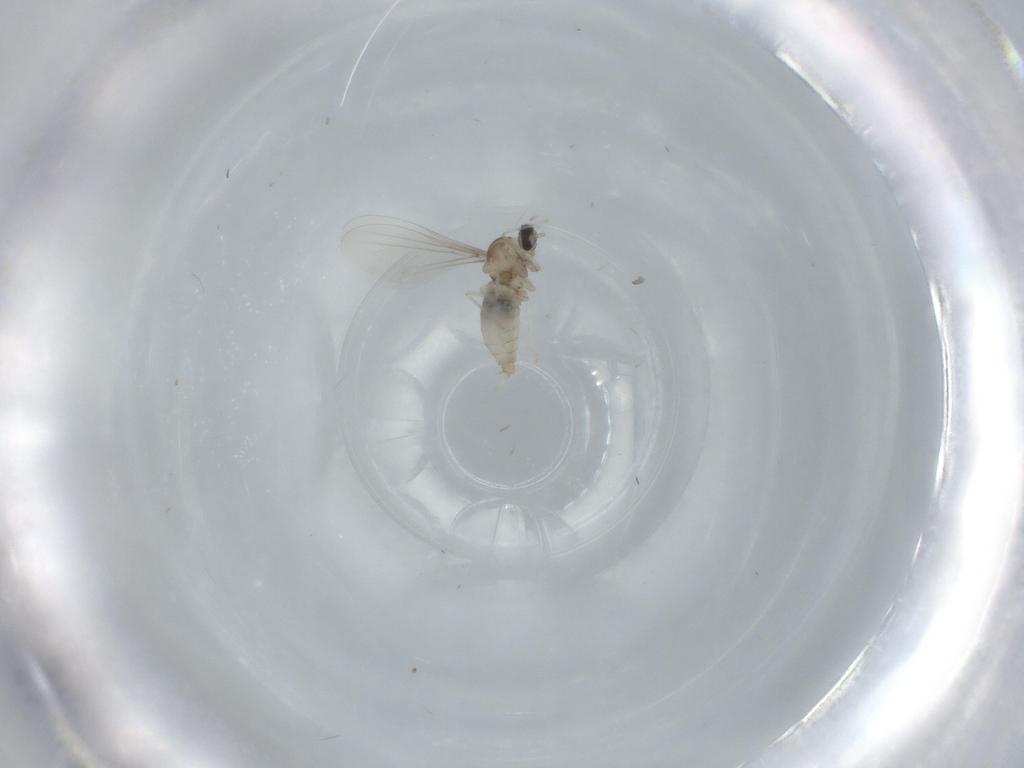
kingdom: Animalia
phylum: Arthropoda
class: Insecta
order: Diptera
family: Cecidomyiidae
